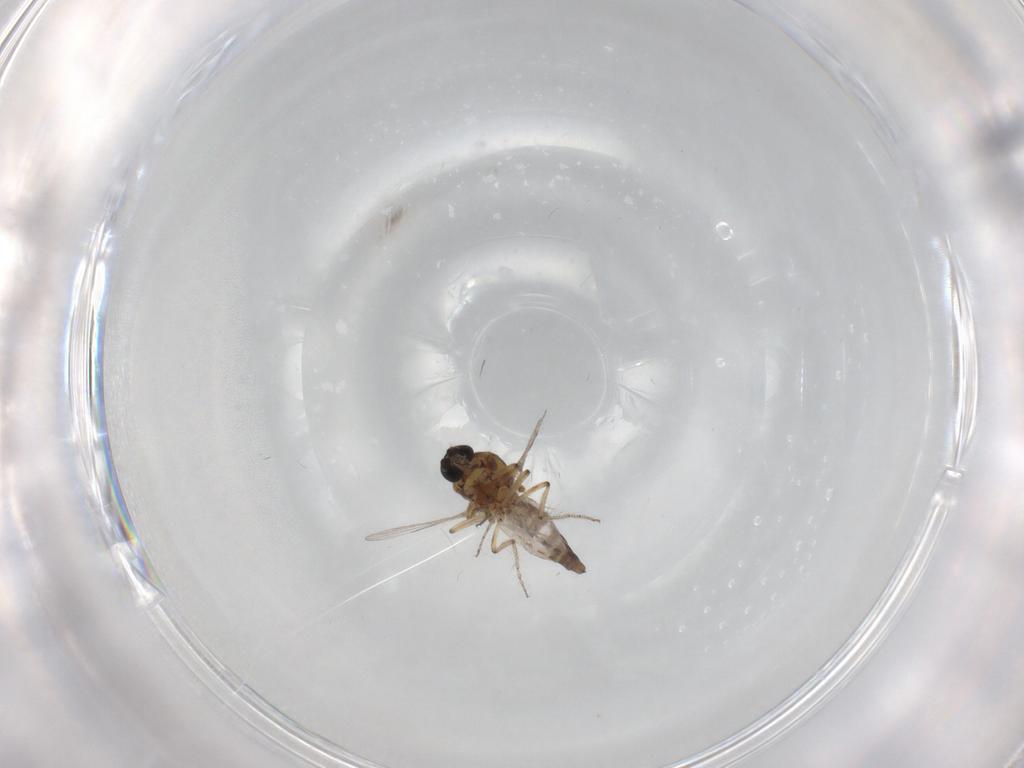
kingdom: Animalia
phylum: Arthropoda
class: Insecta
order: Diptera
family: Ceratopogonidae
